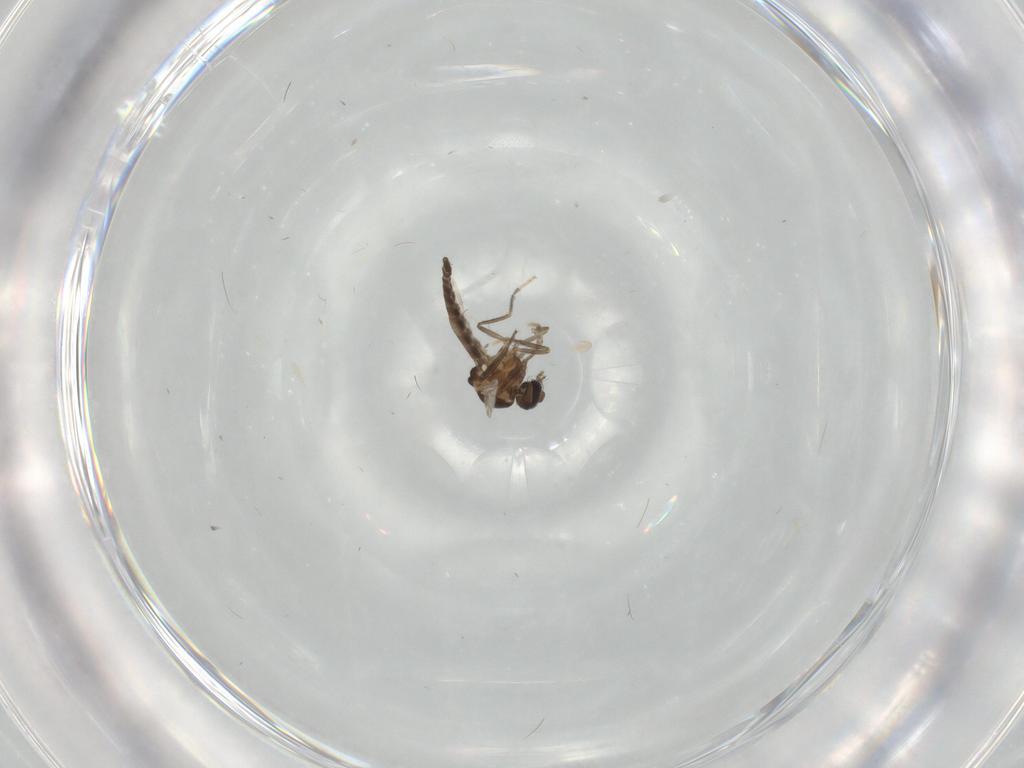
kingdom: Animalia
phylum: Arthropoda
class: Insecta
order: Diptera
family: Ceratopogonidae
